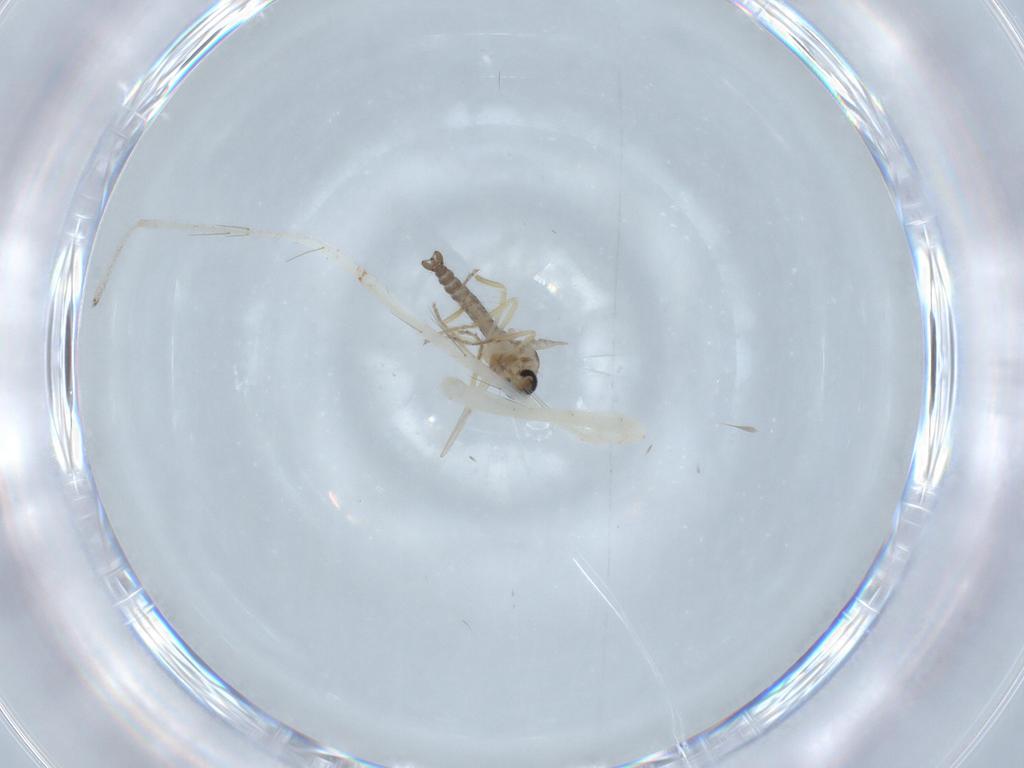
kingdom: Animalia
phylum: Arthropoda
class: Insecta
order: Diptera
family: Ceratopogonidae
